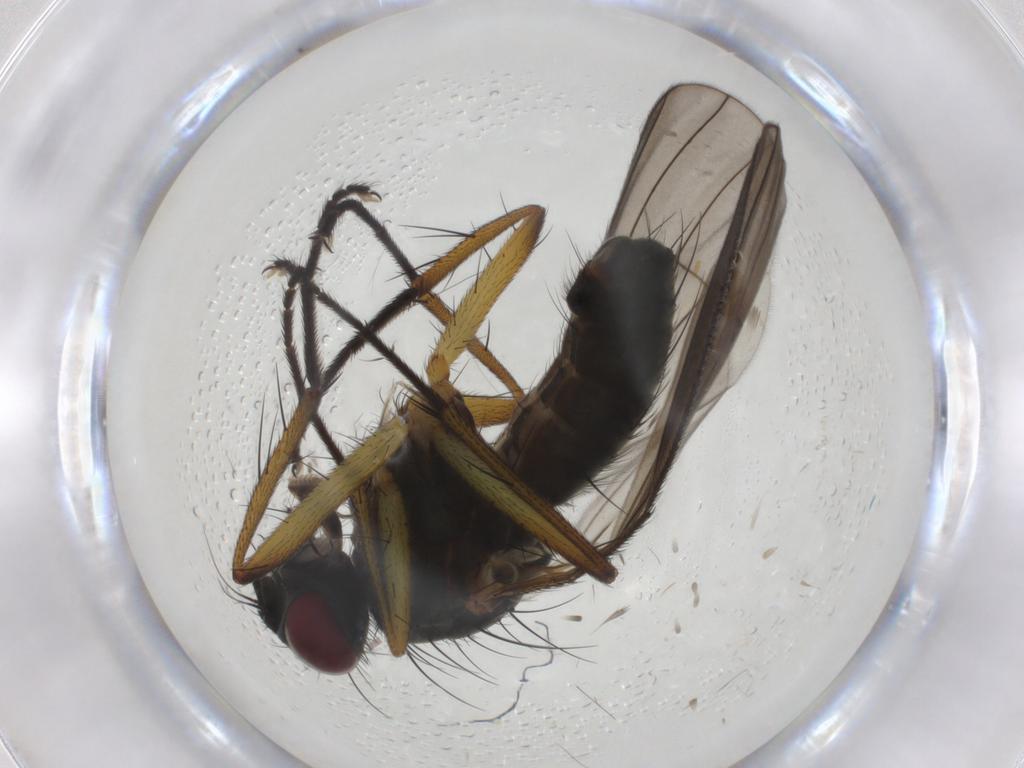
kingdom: Animalia
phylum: Arthropoda
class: Insecta
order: Diptera
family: Muscidae
